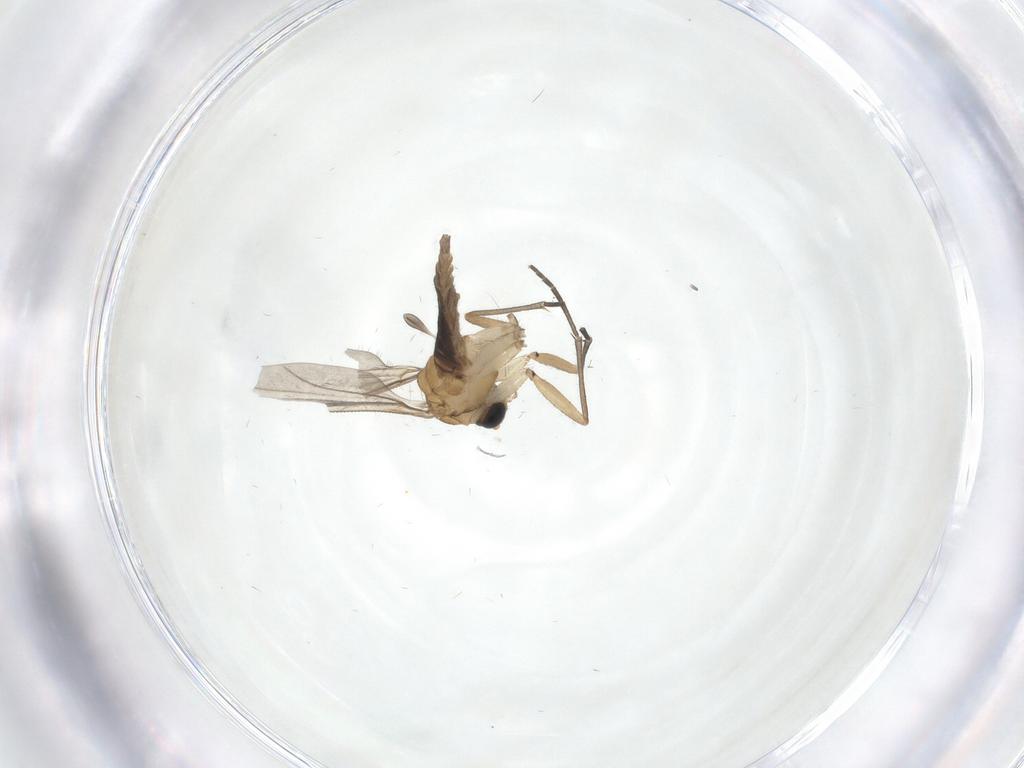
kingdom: Animalia
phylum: Arthropoda
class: Insecta
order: Diptera
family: Sciaridae
